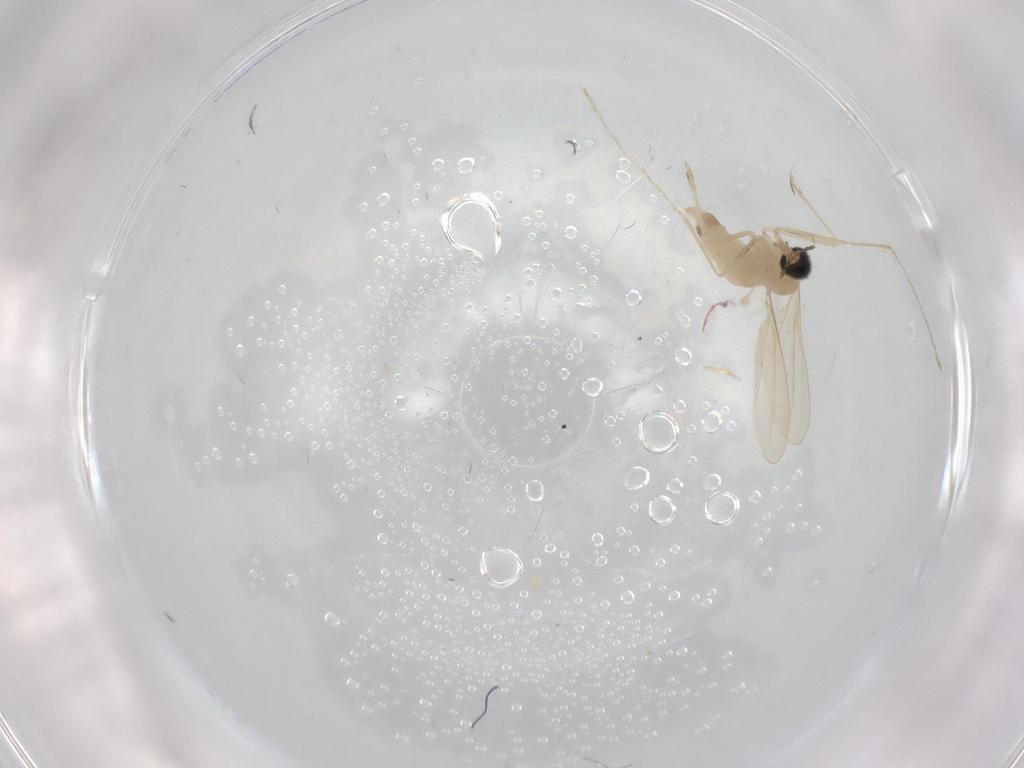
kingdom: Animalia
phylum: Arthropoda
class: Insecta
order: Diptera
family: Cecidomyiidae
